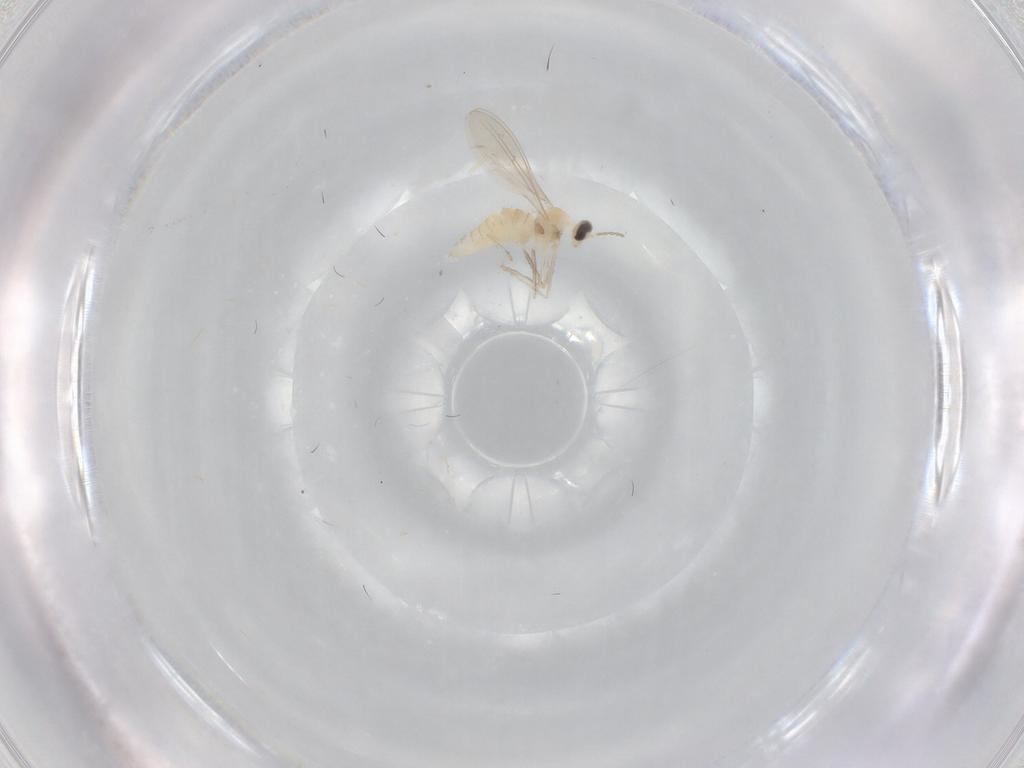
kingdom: Animalia
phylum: Arthropoda
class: Insecta
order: Diptera
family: Cecidomyiidae
